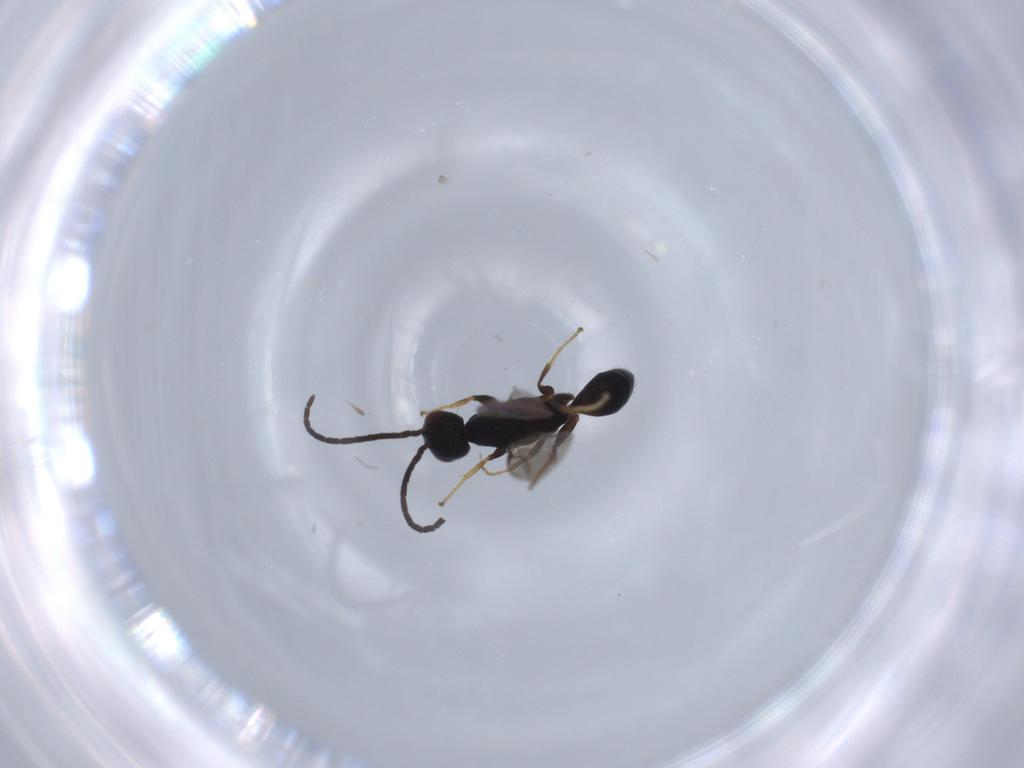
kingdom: Animalia
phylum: Arthropoda
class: Insecta
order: Hymenoptera
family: Bethylidae
